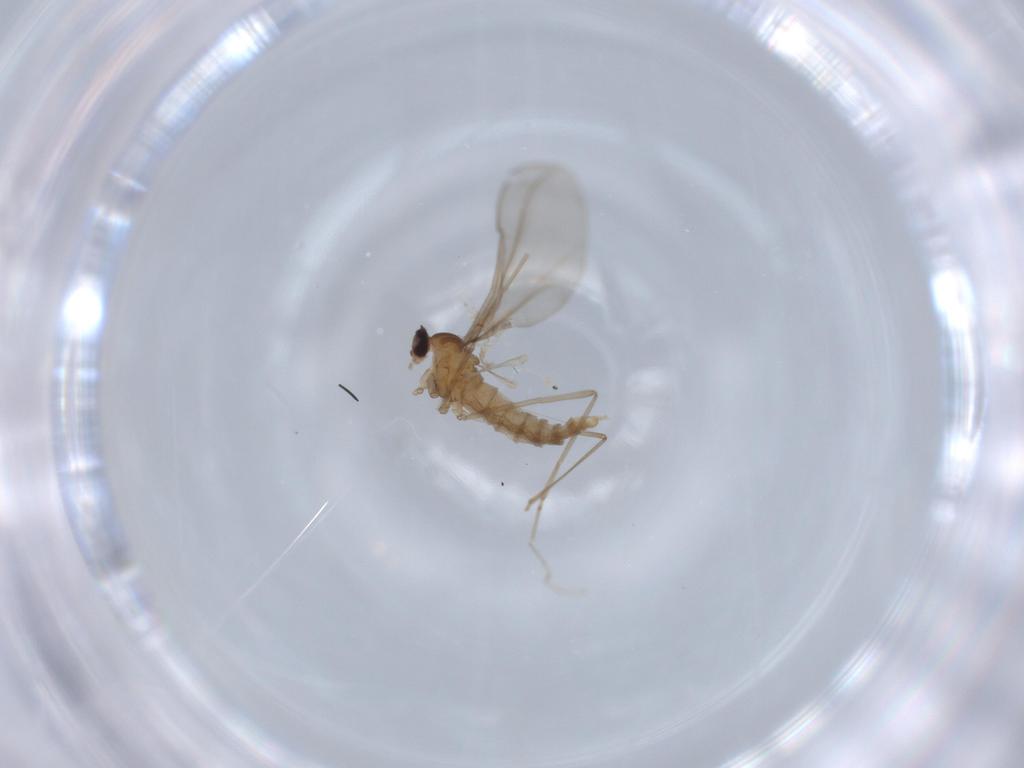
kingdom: Animalia
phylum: Arthropoda
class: Insecta
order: Diptera
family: Cecidomyiidae
